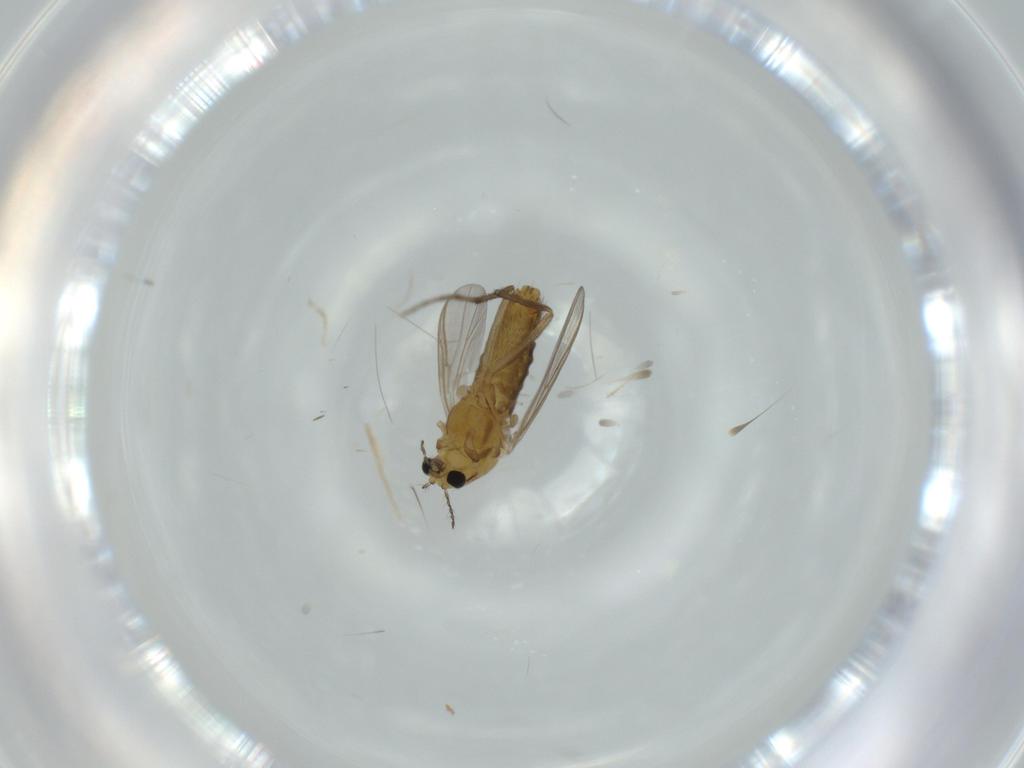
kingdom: Animalia
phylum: Arthropoda
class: Insecta
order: Diptera
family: Chironomidae
